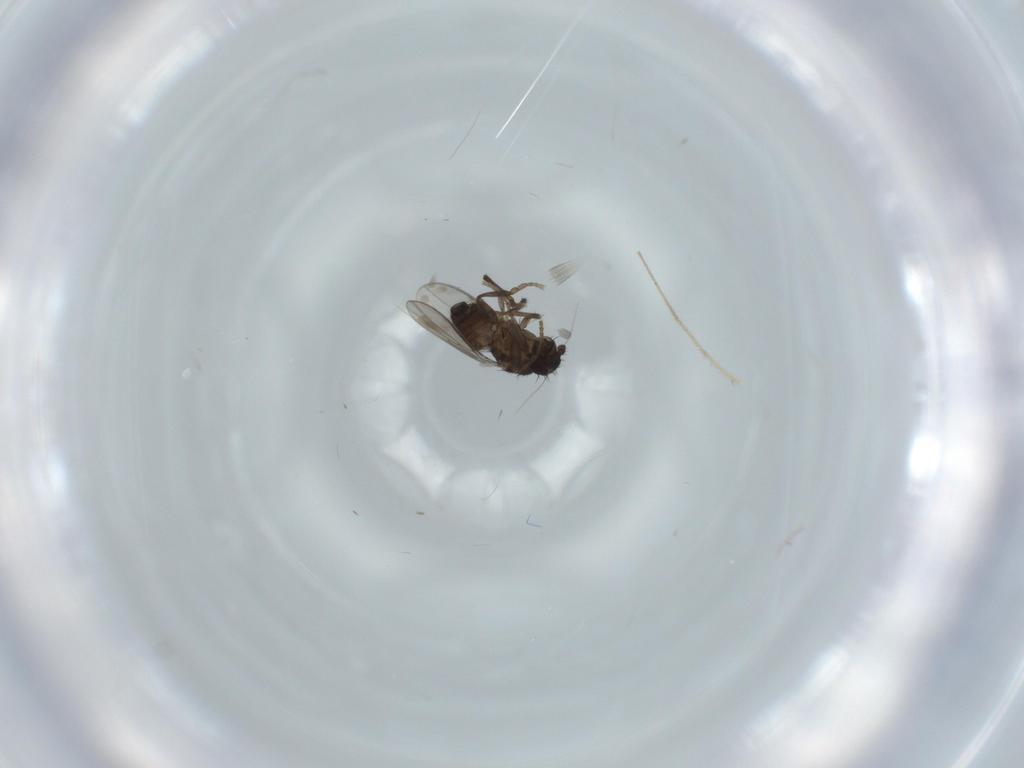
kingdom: Animalia
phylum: Arthropoda
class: Insecta
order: Diptera
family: Sphaeroceridae
